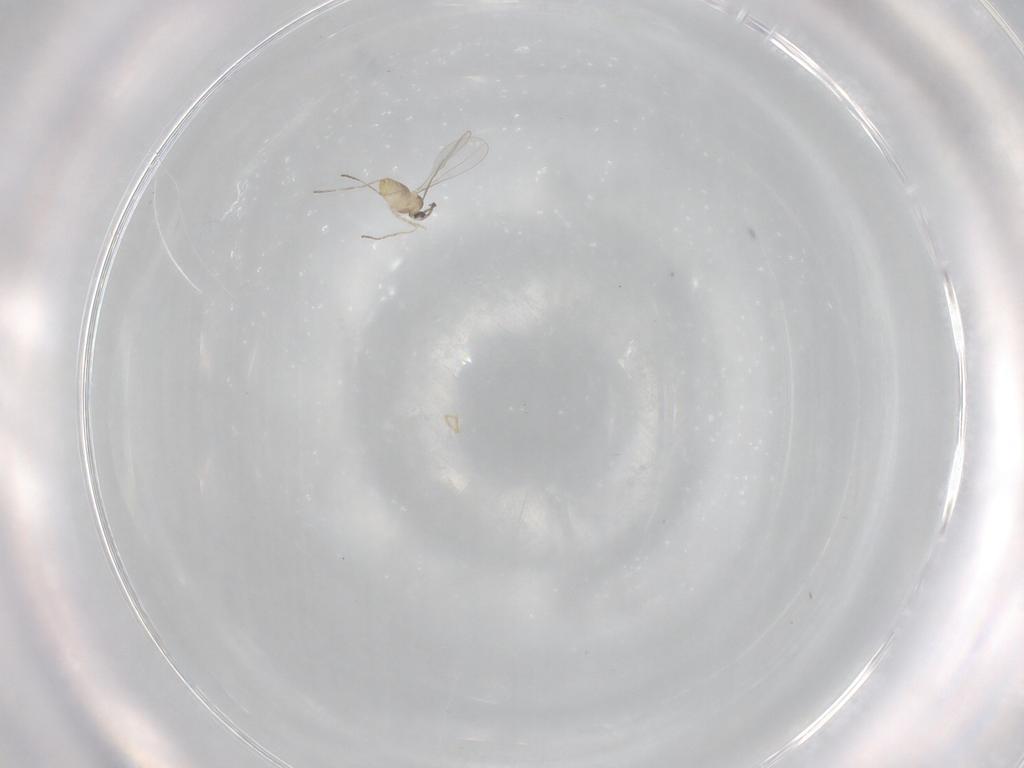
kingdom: Animalia
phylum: Arthropoda
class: Insecta
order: Diptera
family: Cecidomyiidae
